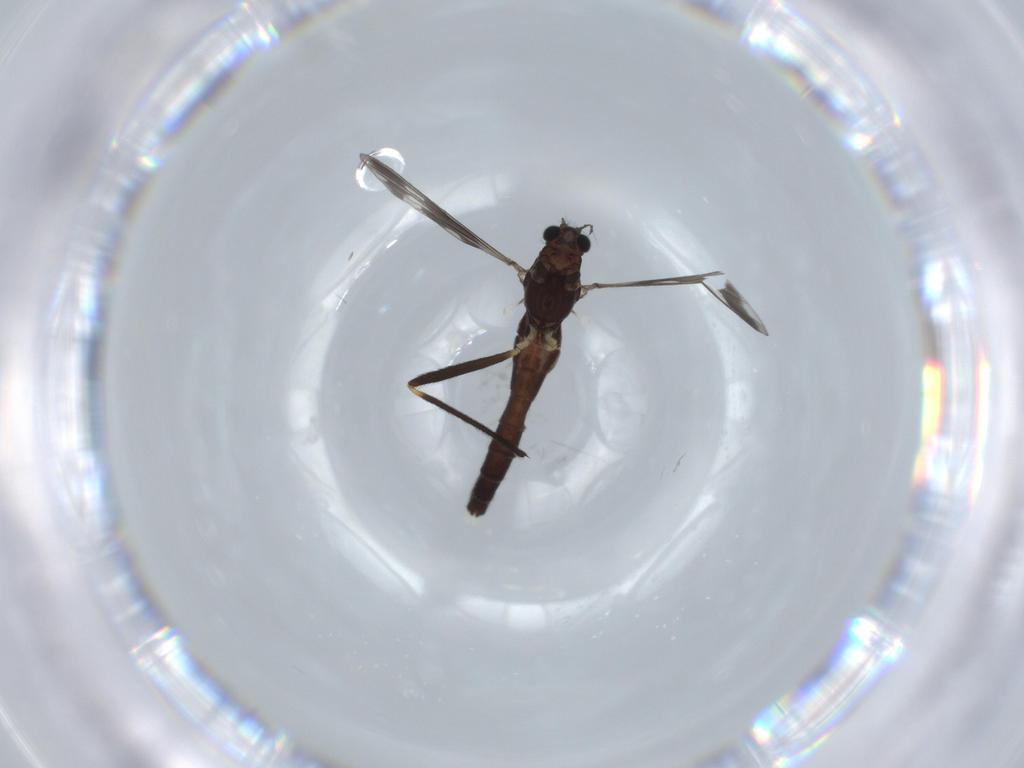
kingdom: Animalia
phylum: Arthropoda
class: Insecta
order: Diptera
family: Chironomidae
